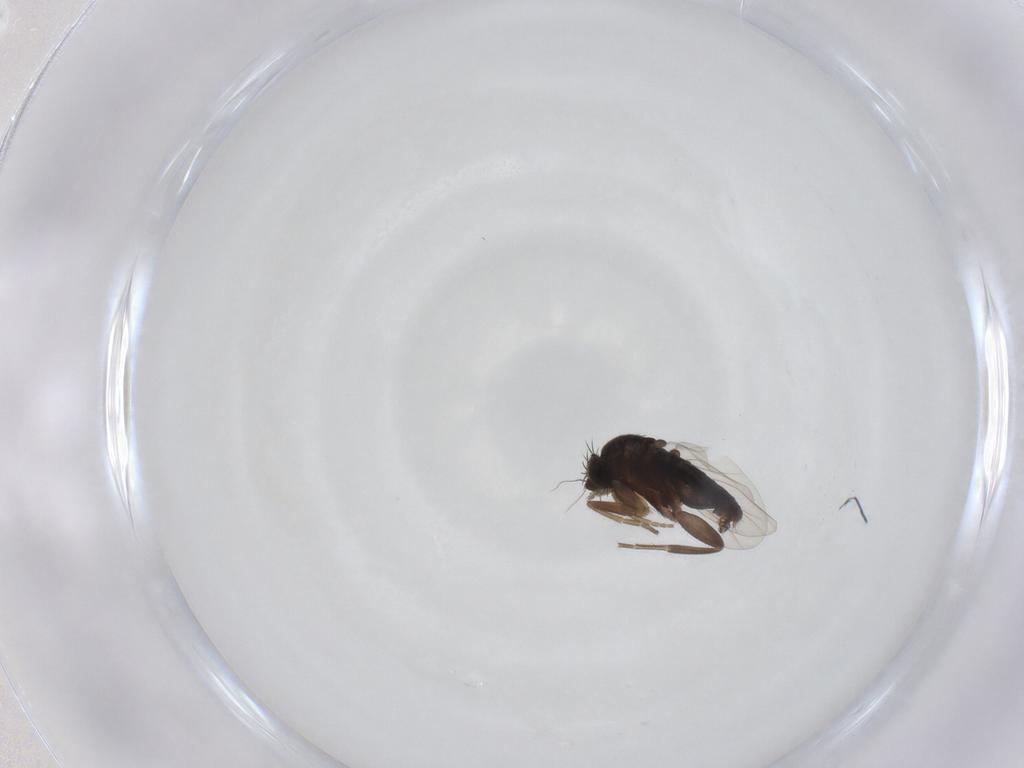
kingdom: Animalia
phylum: Arthropoda
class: Insecta
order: Diptera
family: Phoridae
